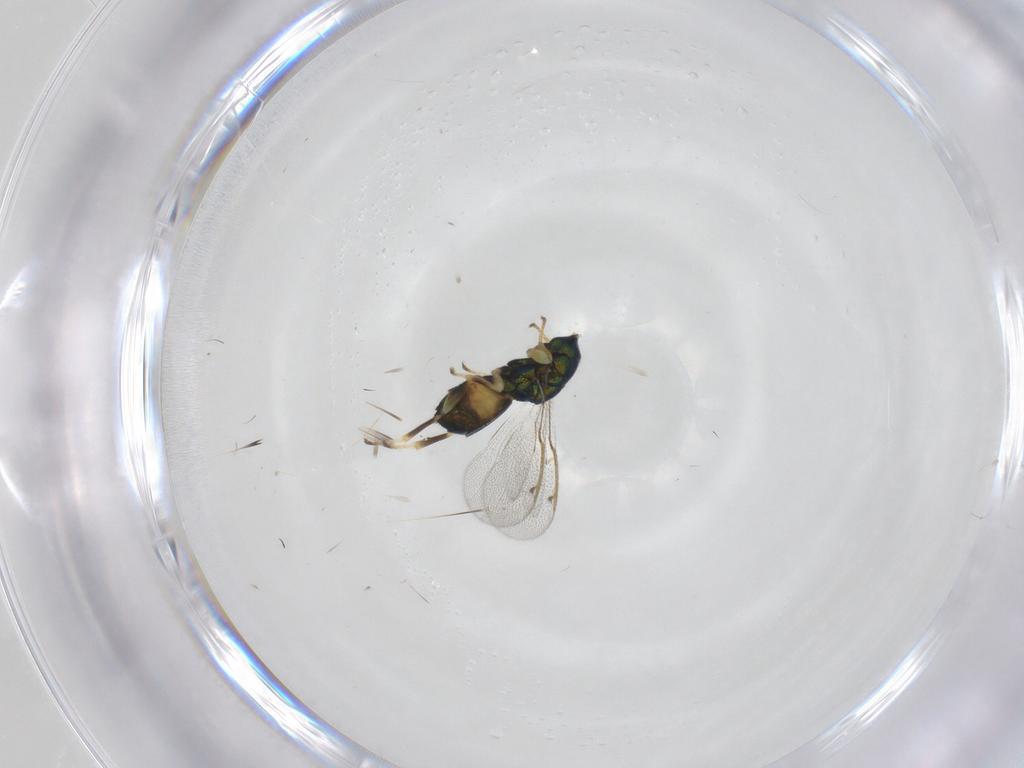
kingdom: Animalia
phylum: Arthropoda
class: Insecta
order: Hymenoptera
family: Torymidae
